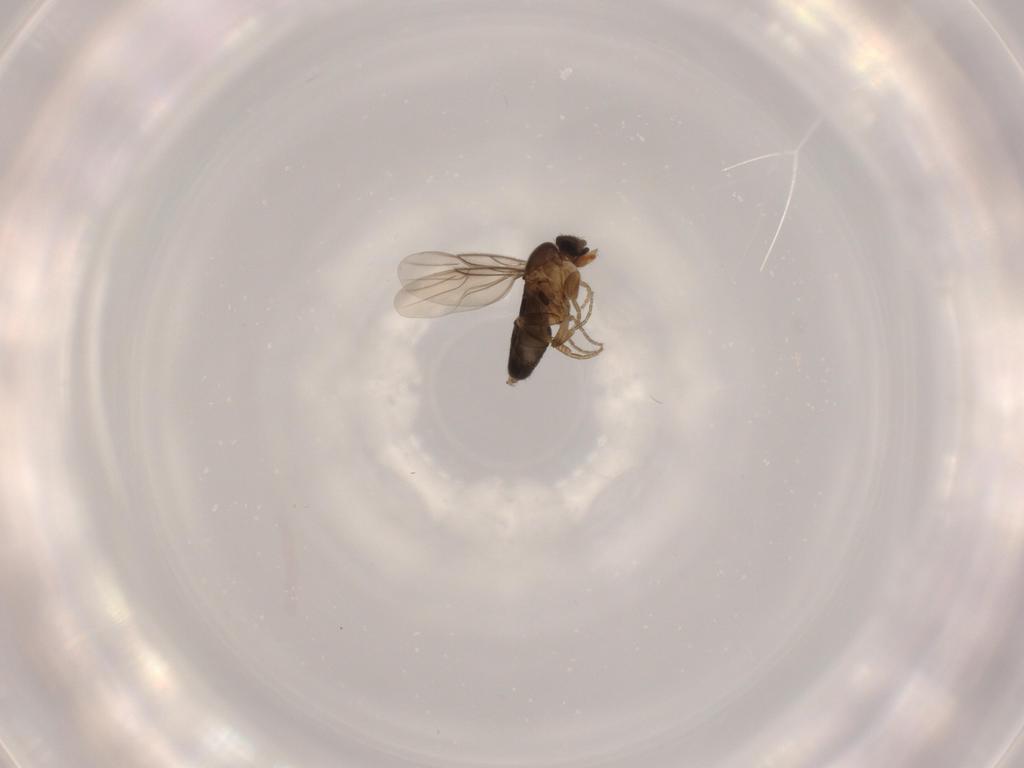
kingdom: Animalia
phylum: Arthropoda
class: Insecta
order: Diptera
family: Phoridae
